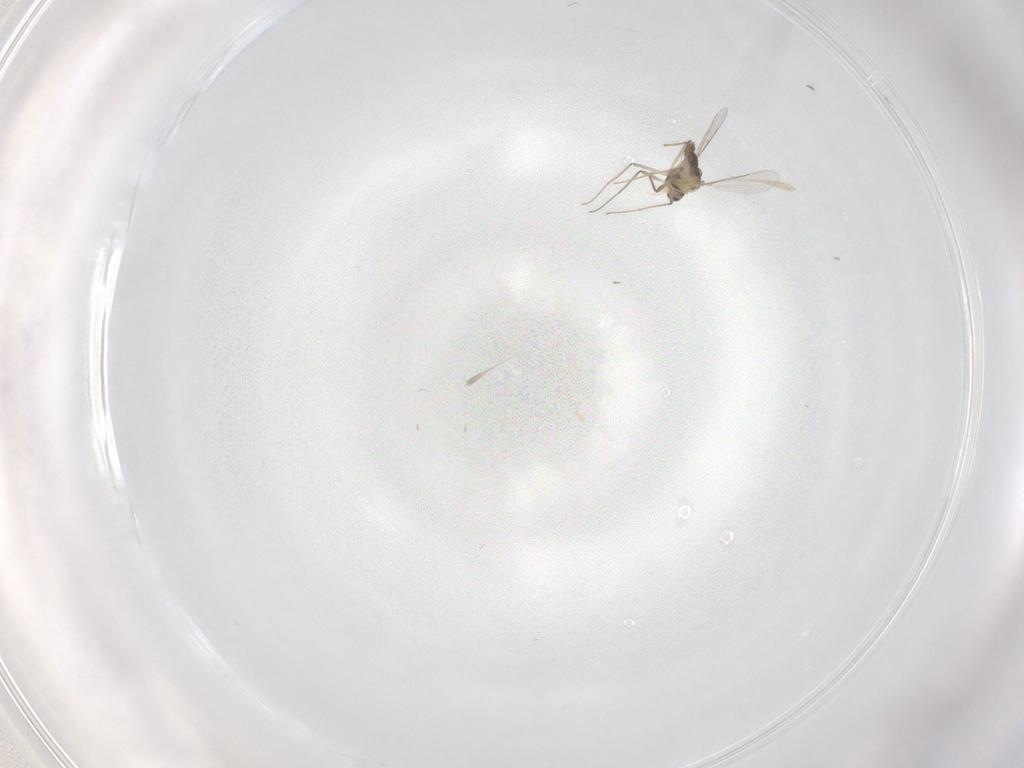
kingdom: Animalia
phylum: Arthropoda
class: Insecta
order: Diptera
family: Chironomidae
